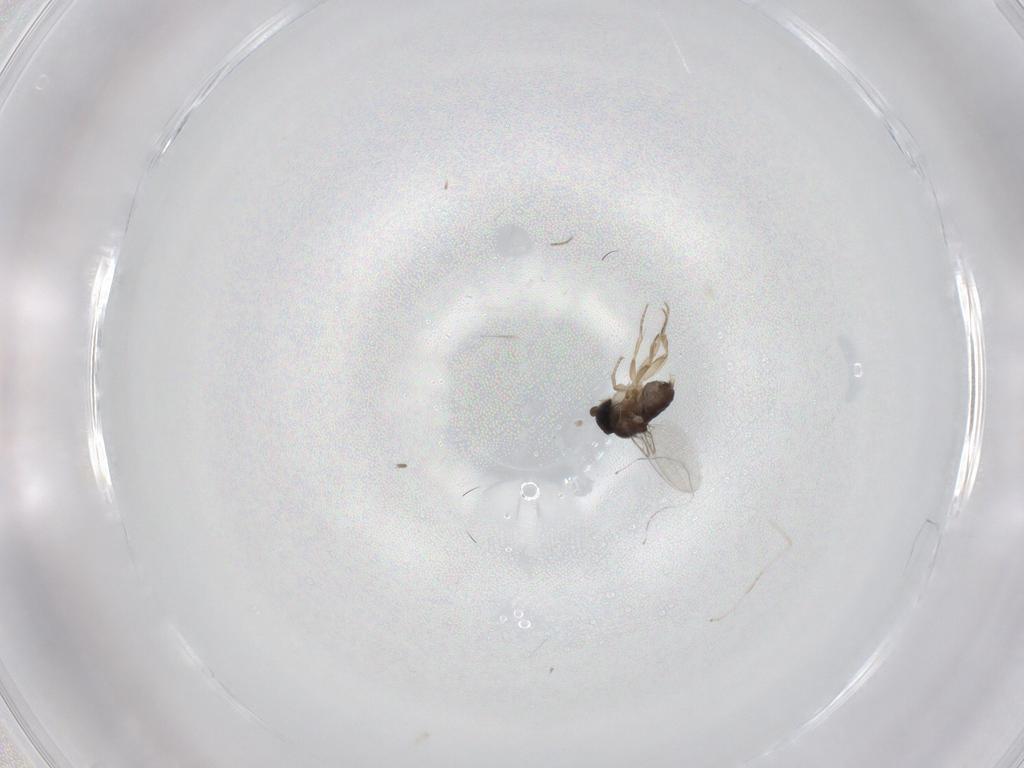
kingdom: Animalia
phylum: Arthropoda
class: Insecta
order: Diptera
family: Phoridae
